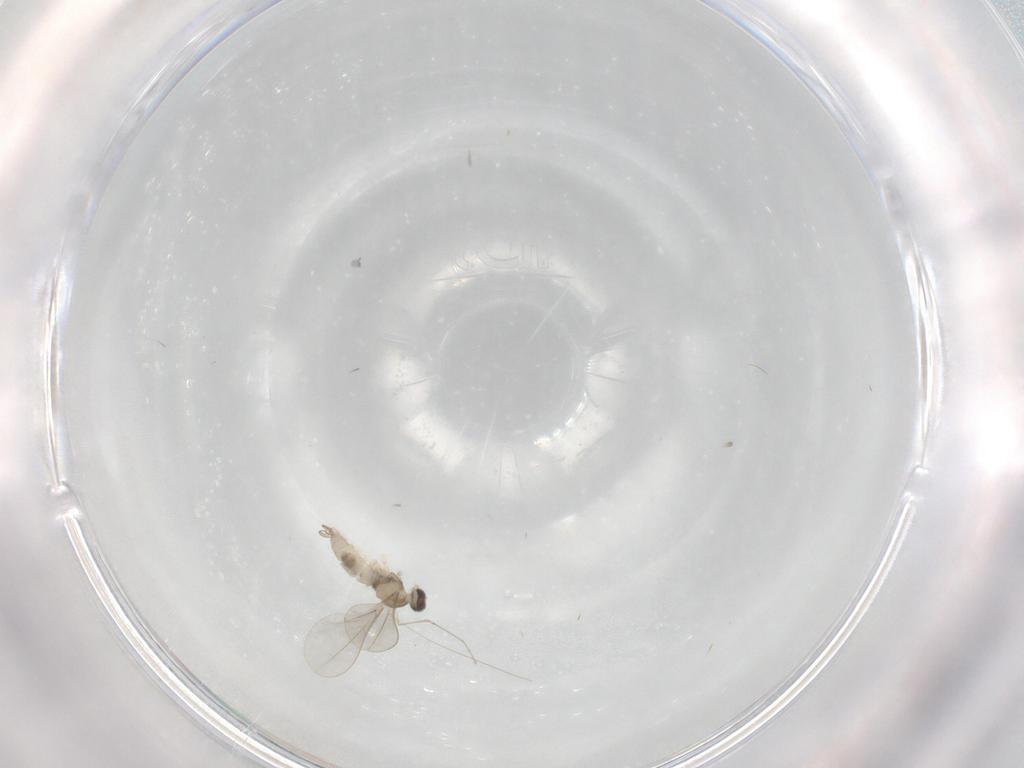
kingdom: Animalia
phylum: Arthropoda
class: Insecta
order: Diptera
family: Cecidomyiidae
